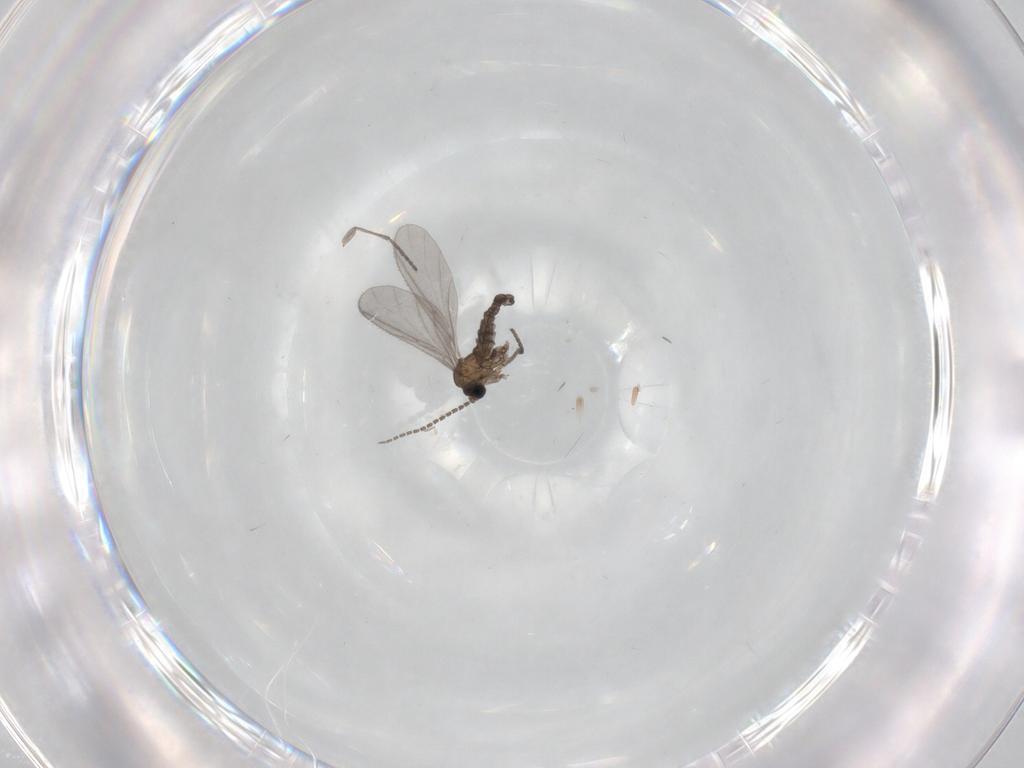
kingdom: Animalia
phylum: Arthropoda
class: Insecta
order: Diptera
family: Sciaridae
